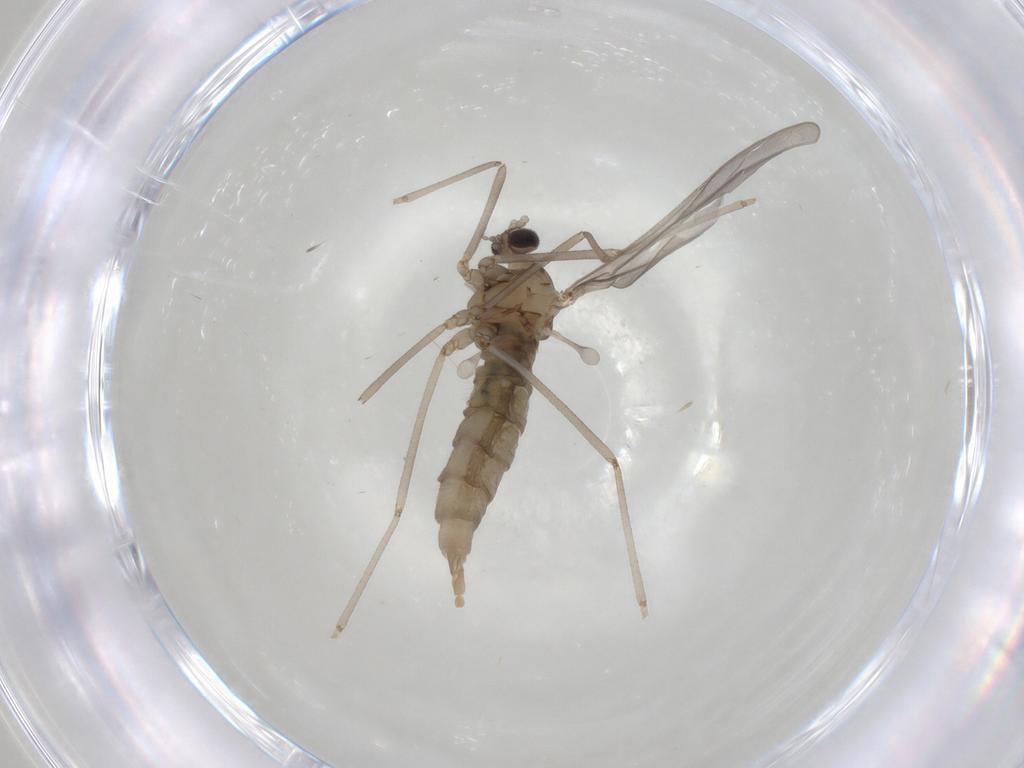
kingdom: Animalia
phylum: Arthropoda
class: Insecta
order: Diptera
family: Cecidomyiidae
